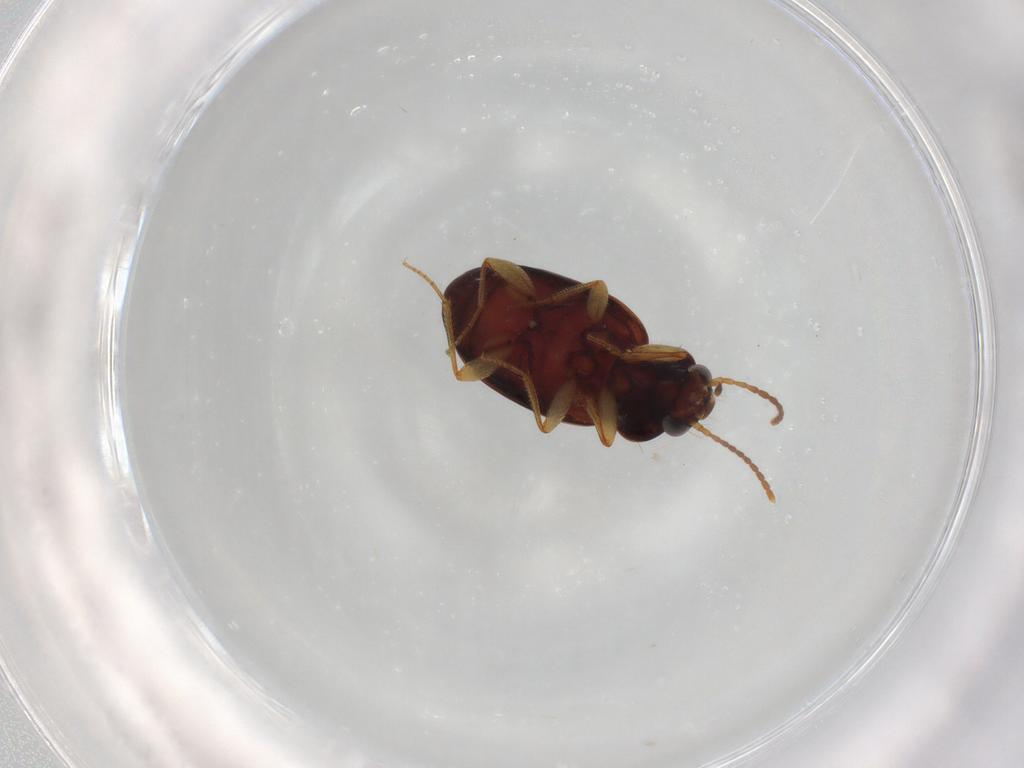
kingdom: Animalia
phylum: Arthropoda
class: Insecta
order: Coleoptera
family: Carabidae
